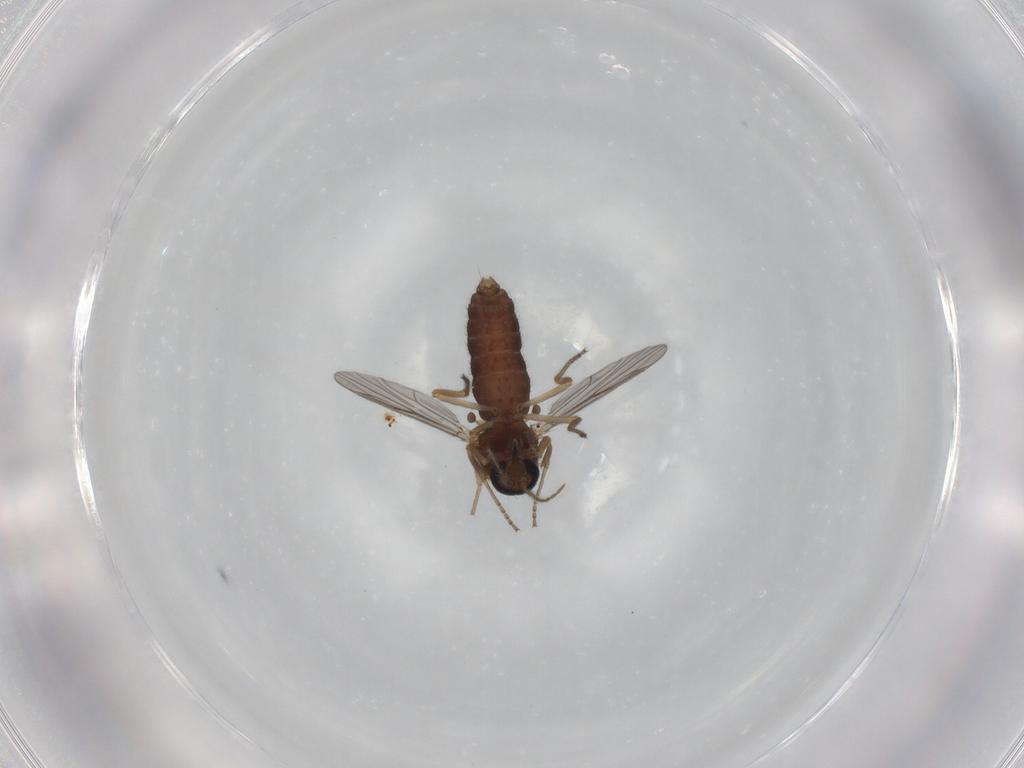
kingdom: Animalia
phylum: Arthropoda
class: Insecta
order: Diptera
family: Ceratopogonidae
